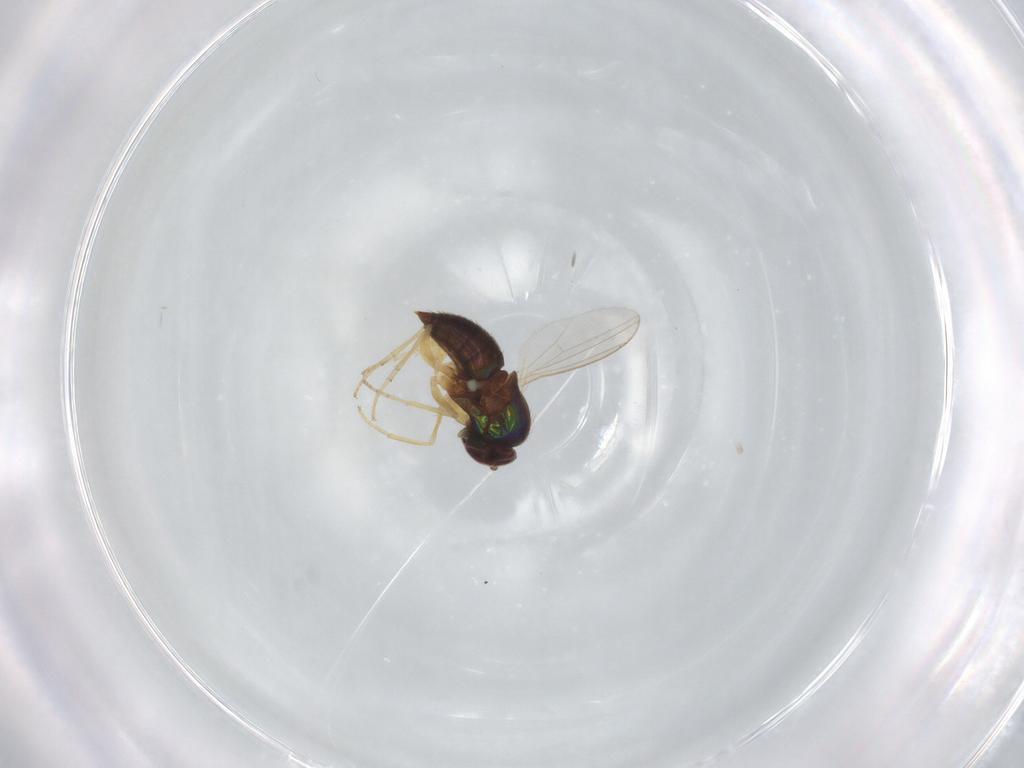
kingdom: Animalia
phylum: Arthropoda
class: Insecta
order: Diptera
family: Dolichopodidae
